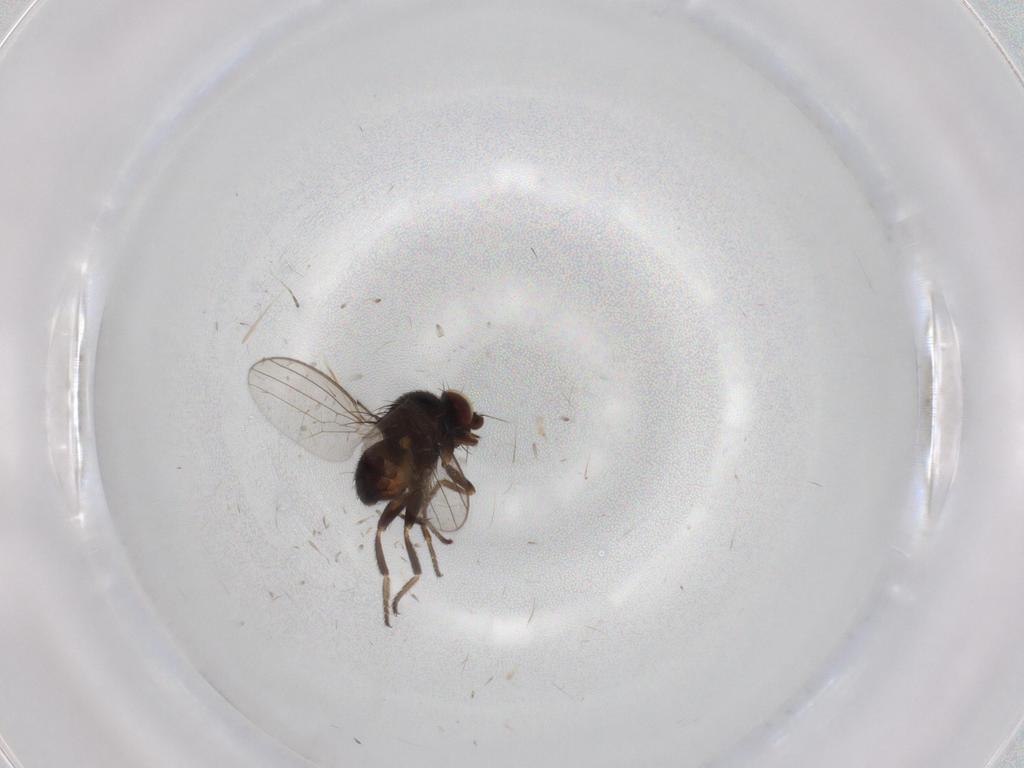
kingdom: Animalia
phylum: Arthropoda
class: Insecta
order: Diptera
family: Milichiidae
